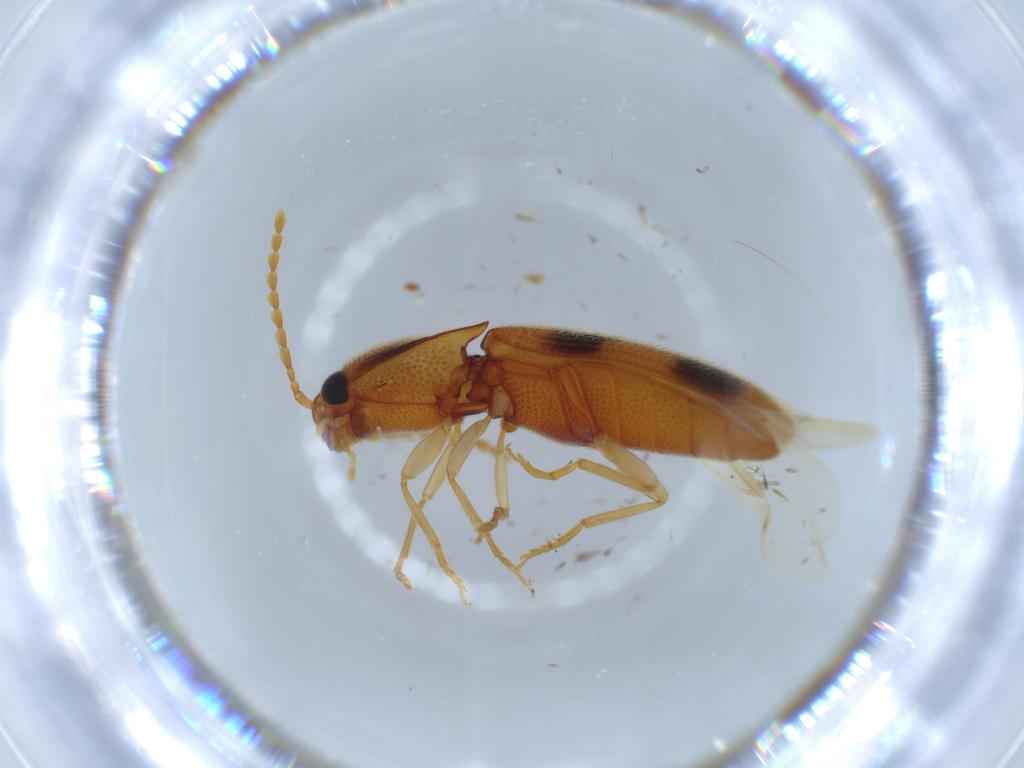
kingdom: Animalia
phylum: Arthropoda
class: Insecta
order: Coleoptera
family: Elateridae
